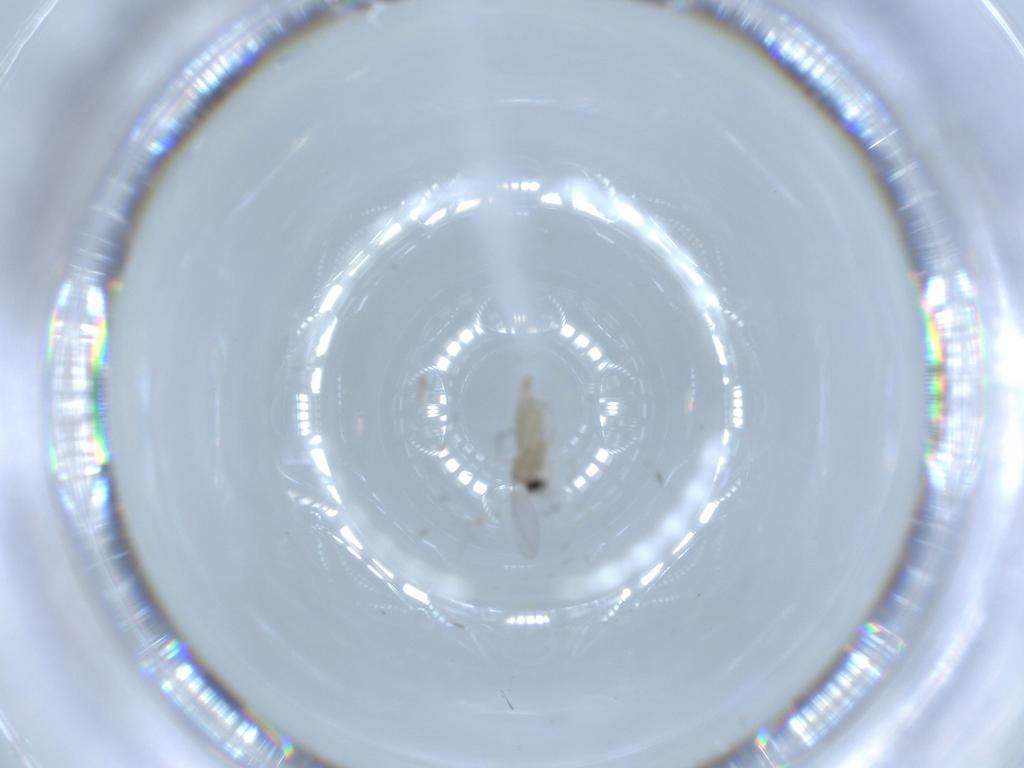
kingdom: Animalia
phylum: Arthropoda
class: Insecta
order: Diptera
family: Cecidomyiidae
